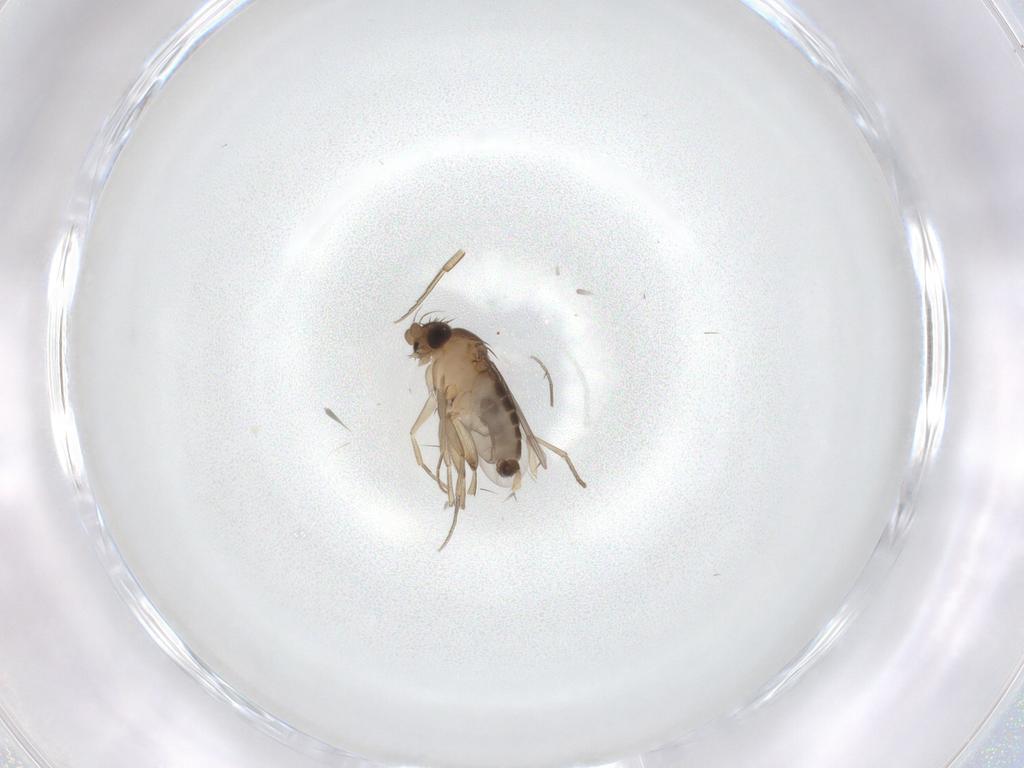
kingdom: Animalia
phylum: Arthropoda
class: Insecta
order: Diptera
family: Phoridae
